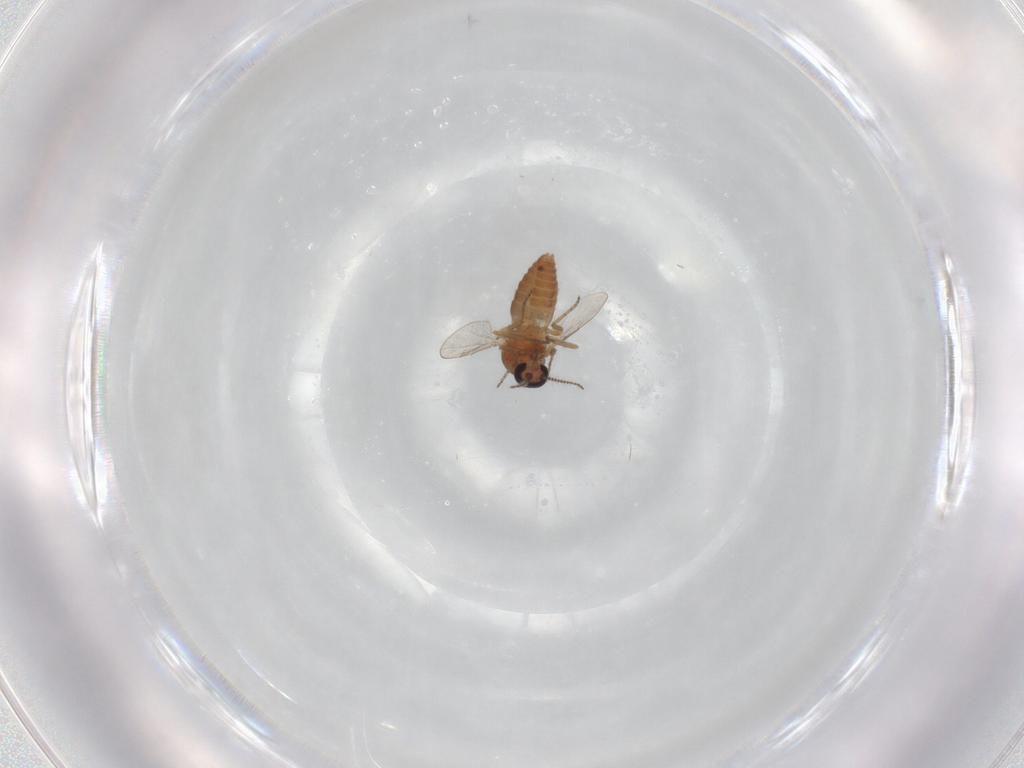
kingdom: Animalia
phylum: Arthropoda
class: Insecta
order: Diptera
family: Ceratopogonidae
